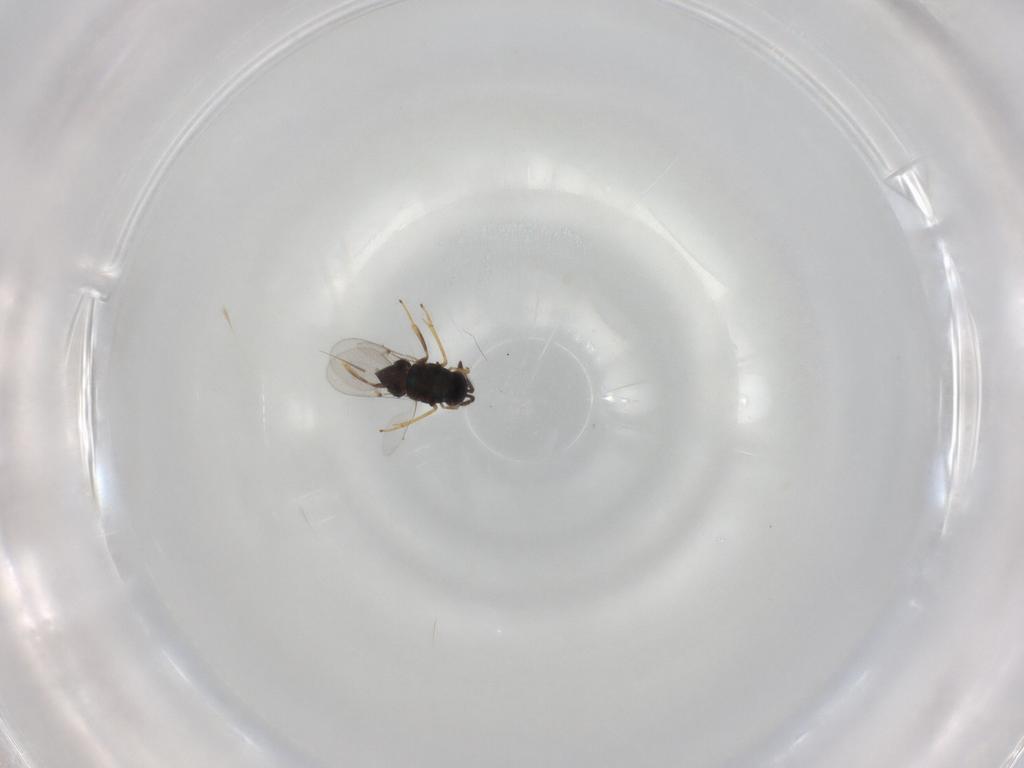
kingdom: Animalia
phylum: Arthropoda
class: Insecta
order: Hymenoptera
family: Encyrtidae
